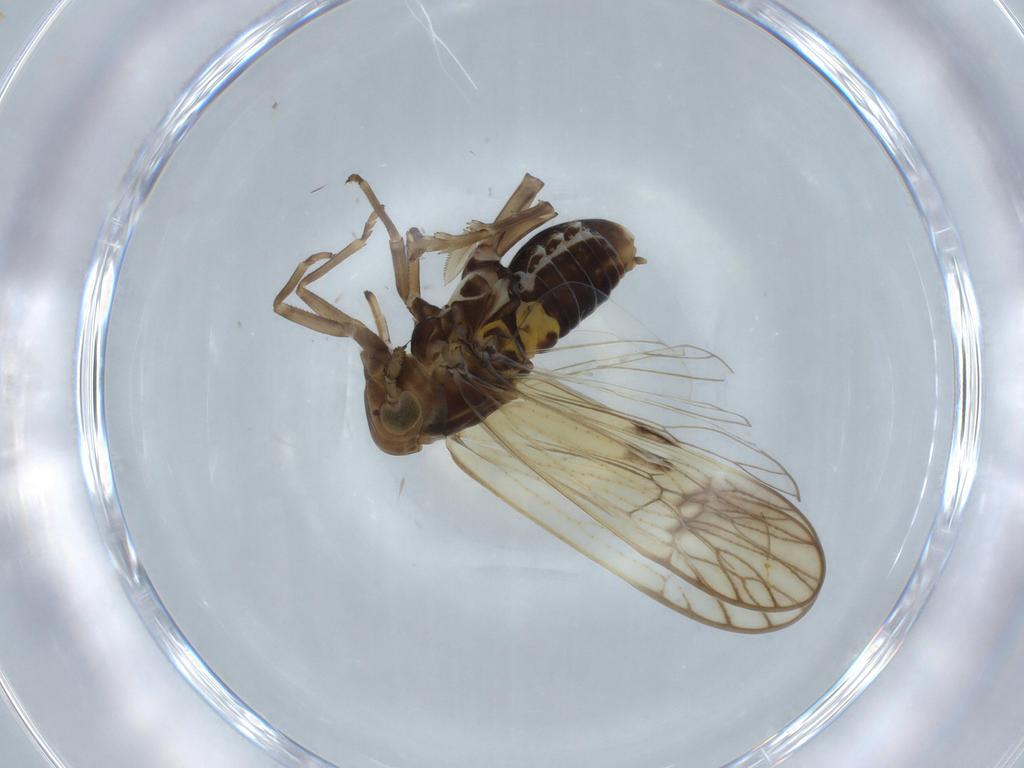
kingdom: Animalia
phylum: Arthropoda
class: Insecta
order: Hemiptera
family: Delphacidae
